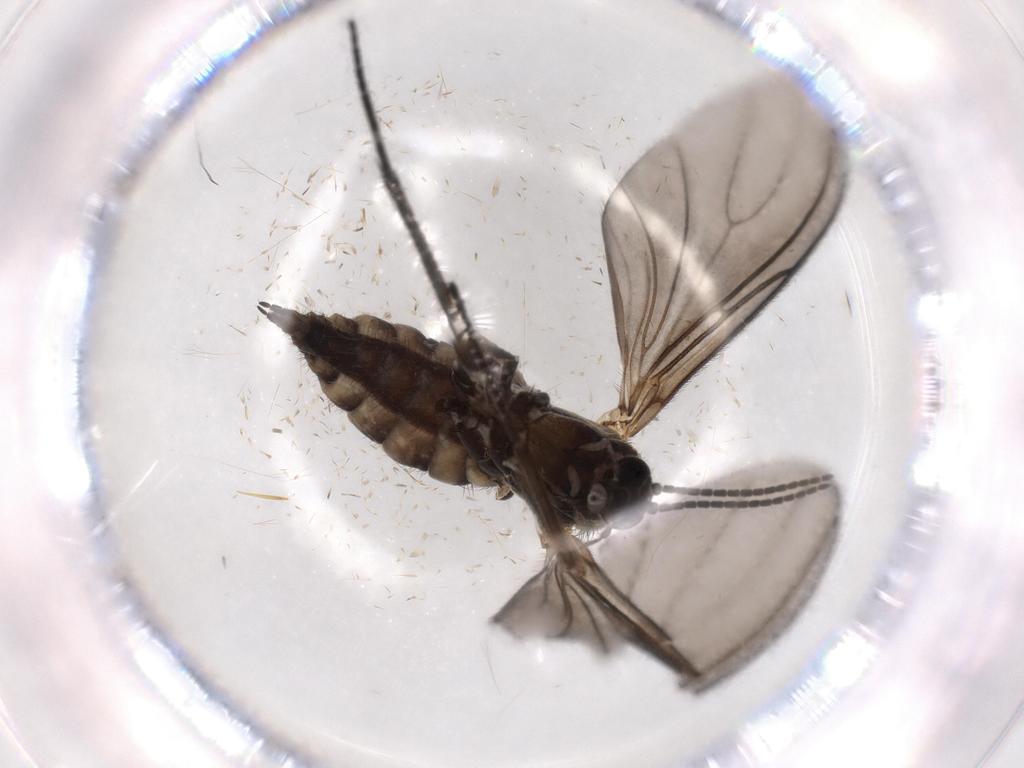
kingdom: Animalia
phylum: Arthropoda
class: Insecta
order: Diptera
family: Sciaridae
